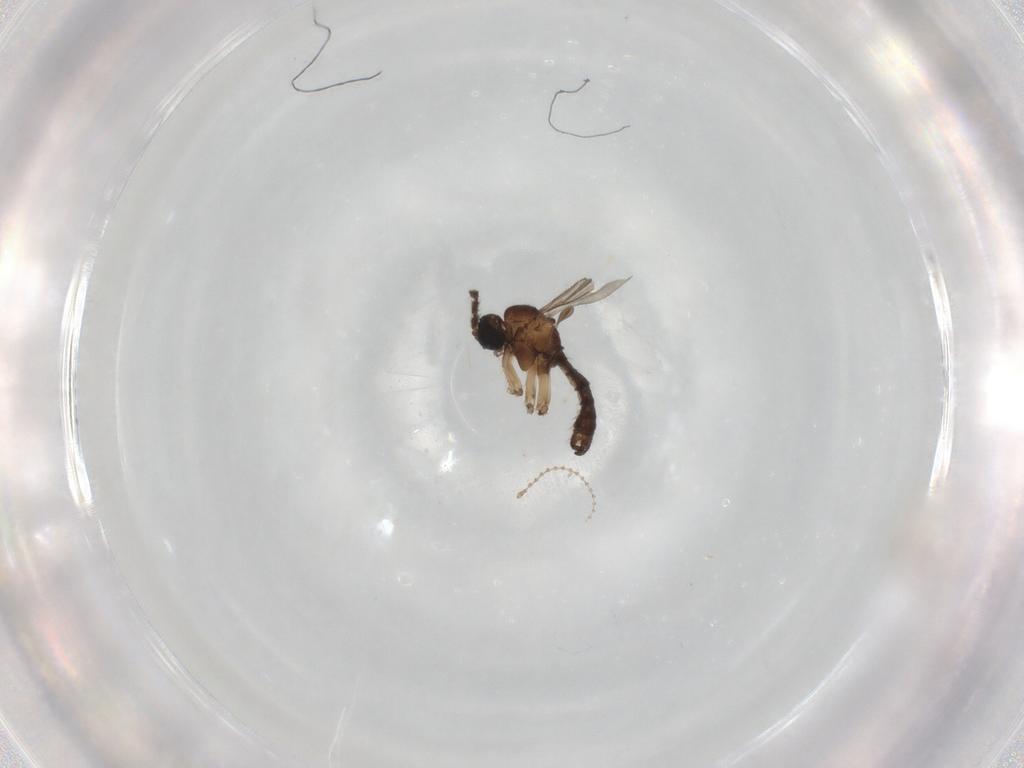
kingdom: Animalia
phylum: Arthropoda
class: Insecta
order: Diptera
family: Sciaridae
